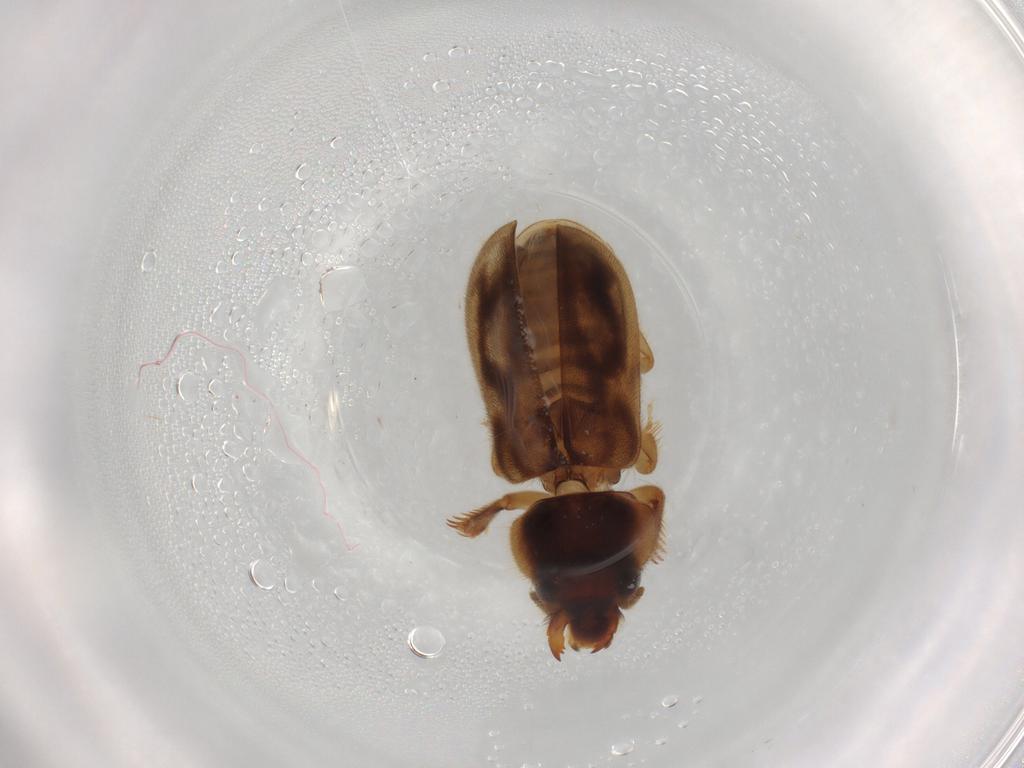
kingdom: Animalia
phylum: Arthropoda
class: Insecta
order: Coleoptera
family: Heteroceridae
